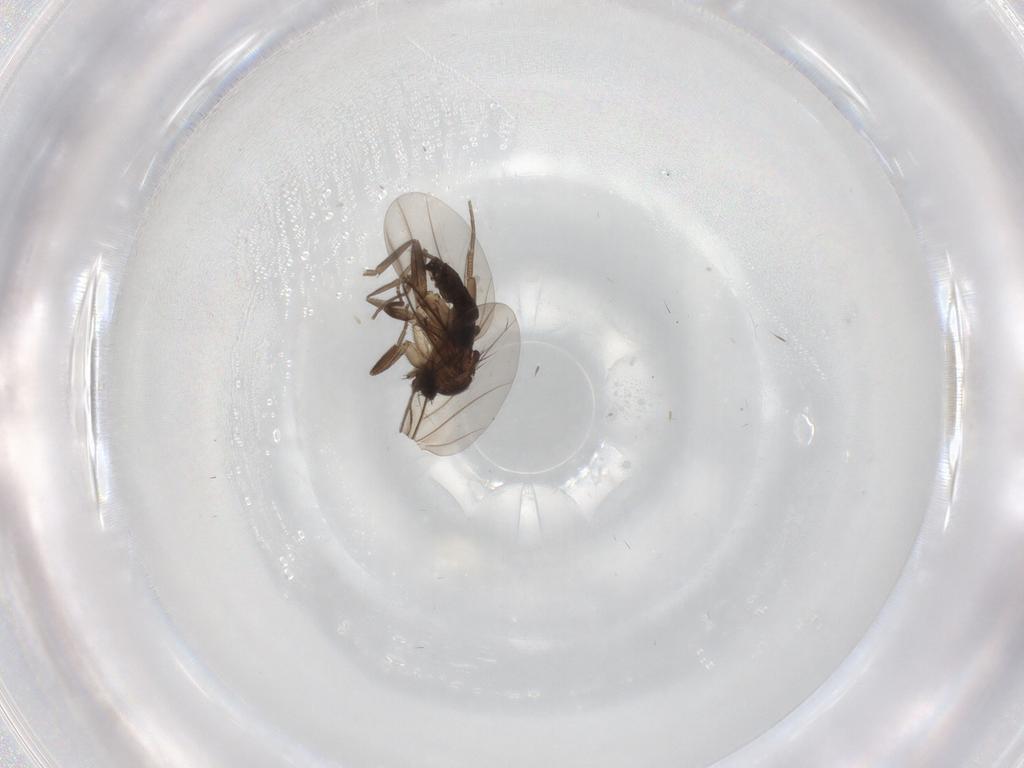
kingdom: Animalia
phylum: Arthropoda
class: Insecta
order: Diptera
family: Phoridae
